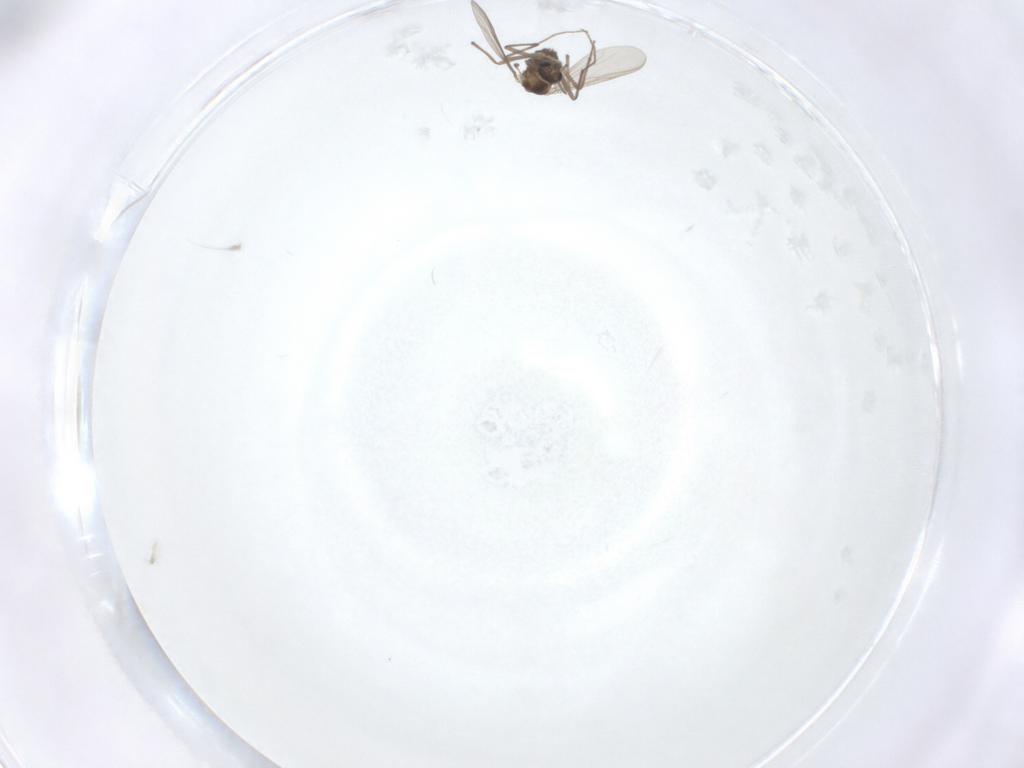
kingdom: Animalia
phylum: Arthropoda
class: Insecta
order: Diptera
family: Chironomidae
